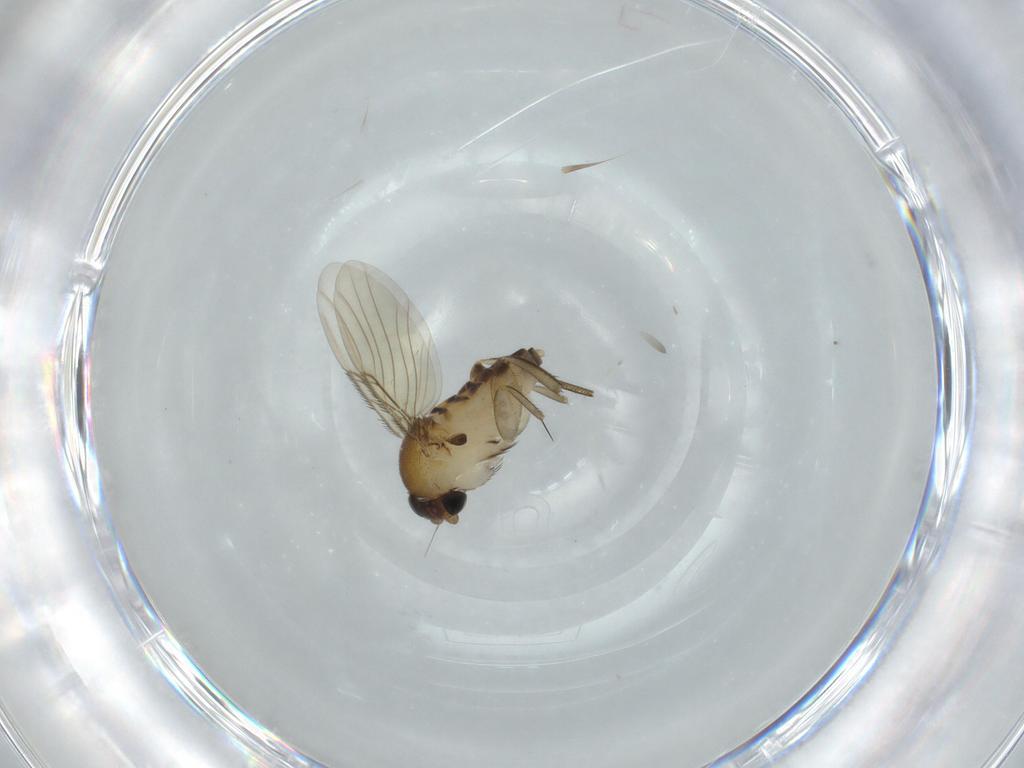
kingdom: Animalia
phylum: Arthropoda
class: Insecta
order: Diptera
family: Phoridae
